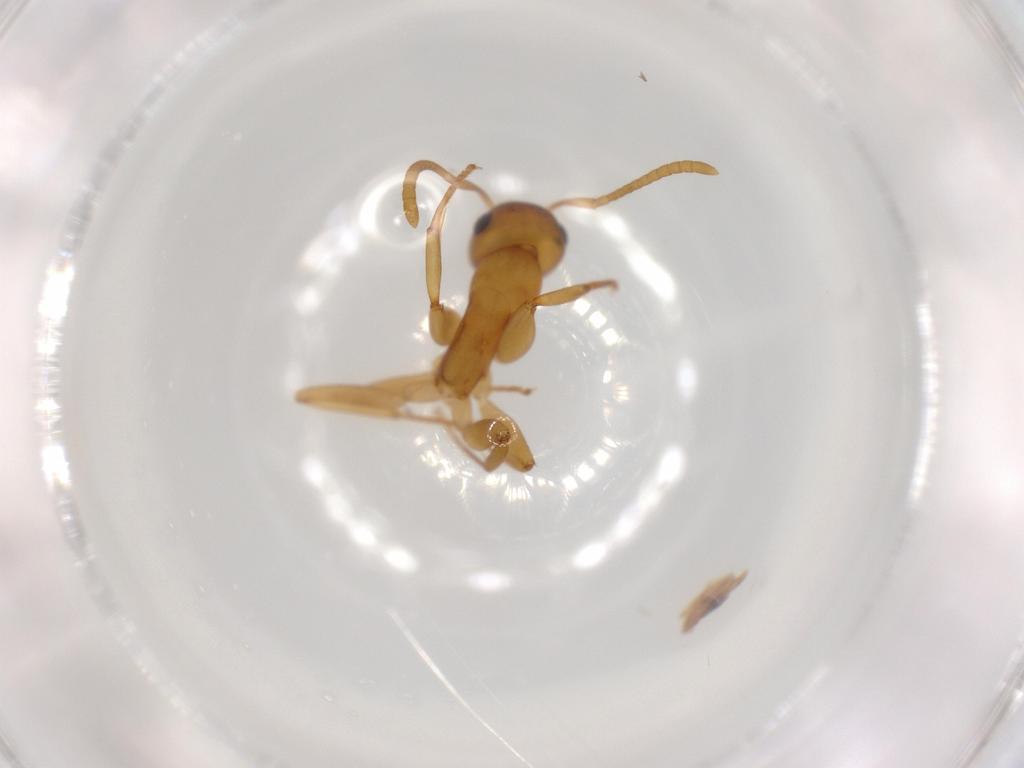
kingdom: Animalia
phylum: Arthropoda
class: Insecta
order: Hymenoptera
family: Formicidae
